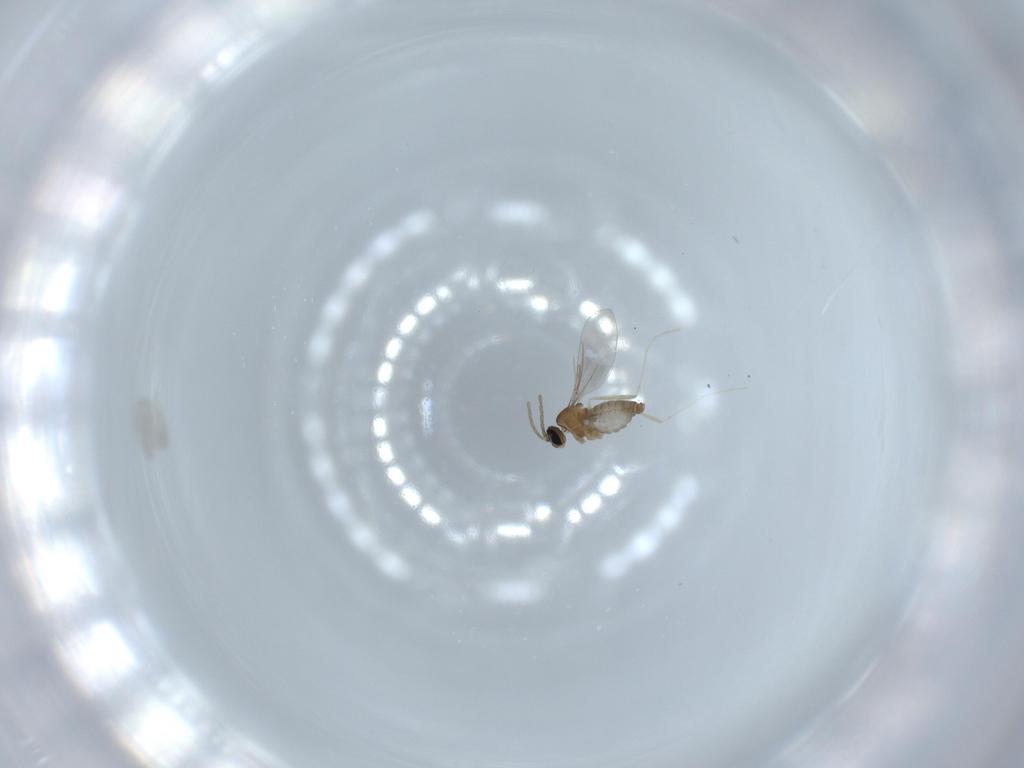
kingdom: Animalia
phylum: Arthropoda
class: Insecta
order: Diptera
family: Cecidomyiidae
